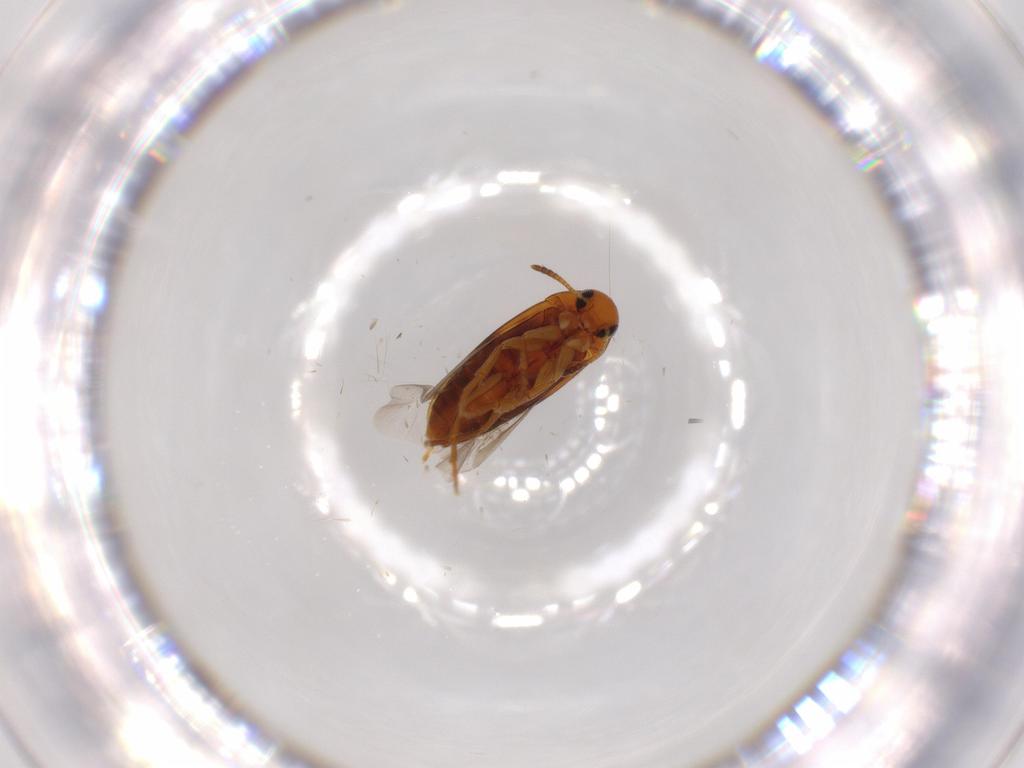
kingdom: Animalia
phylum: Arthropoda
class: Insecta
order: Coleoptera
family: Scraptiidae
